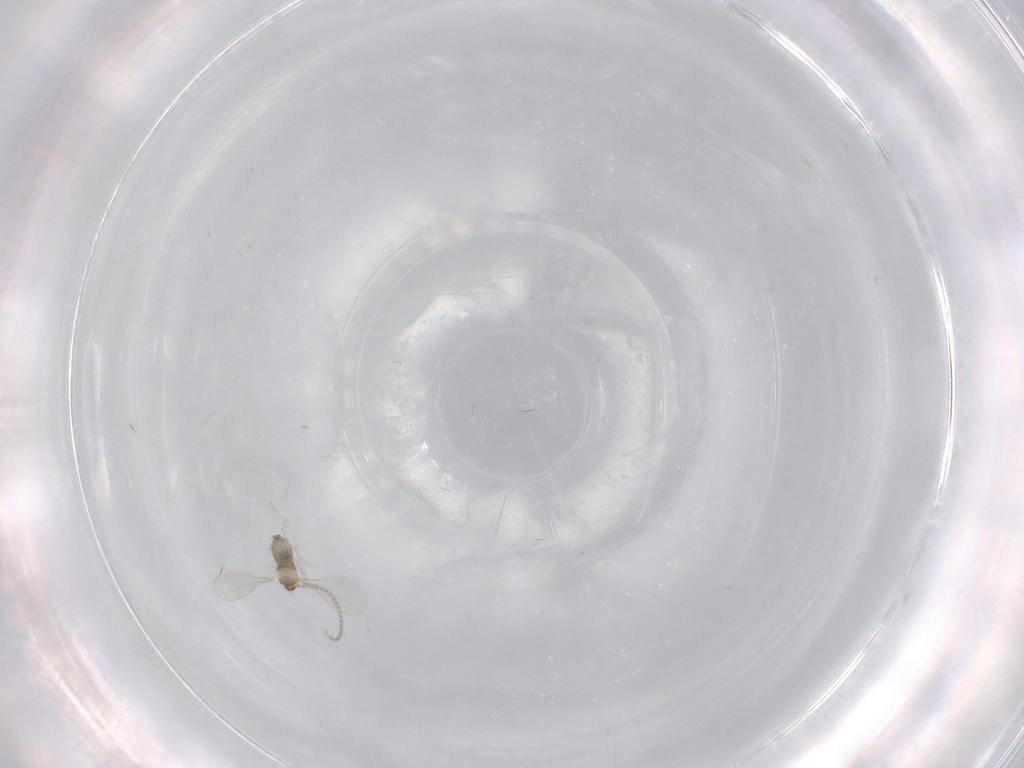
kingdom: Animalia
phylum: Arthropoda
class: Insecta
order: Diptera
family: Cecidomyiidae
